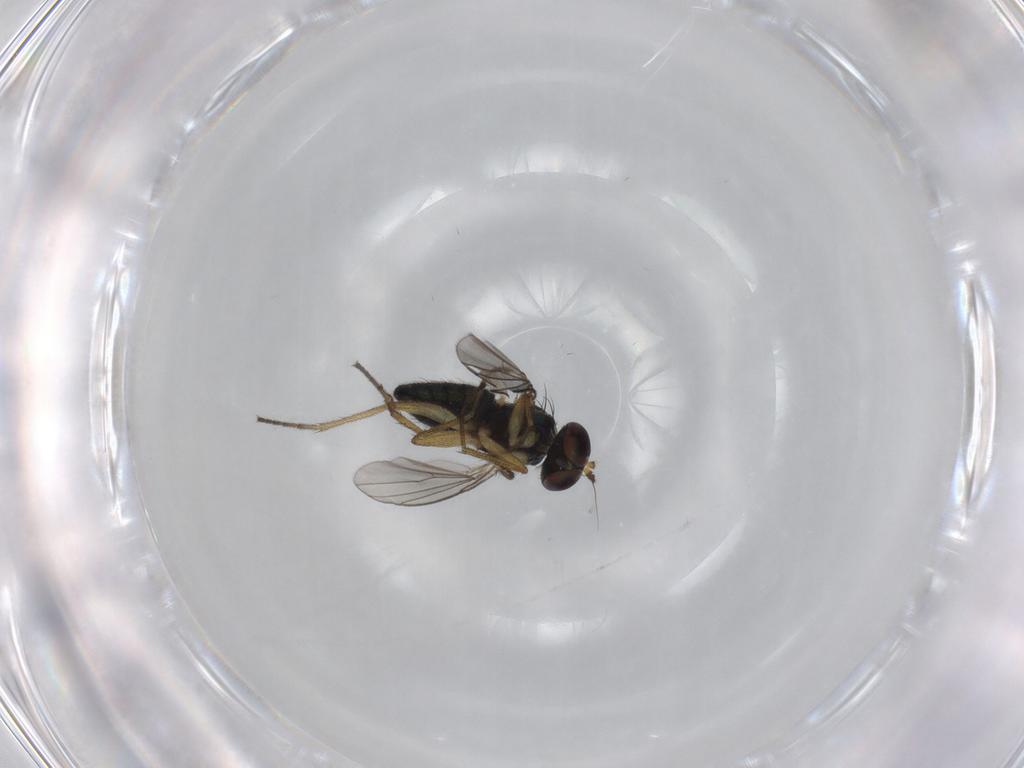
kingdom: Animalia
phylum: Arthropoda
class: Insecta
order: Diptera
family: Dolichopodidae
